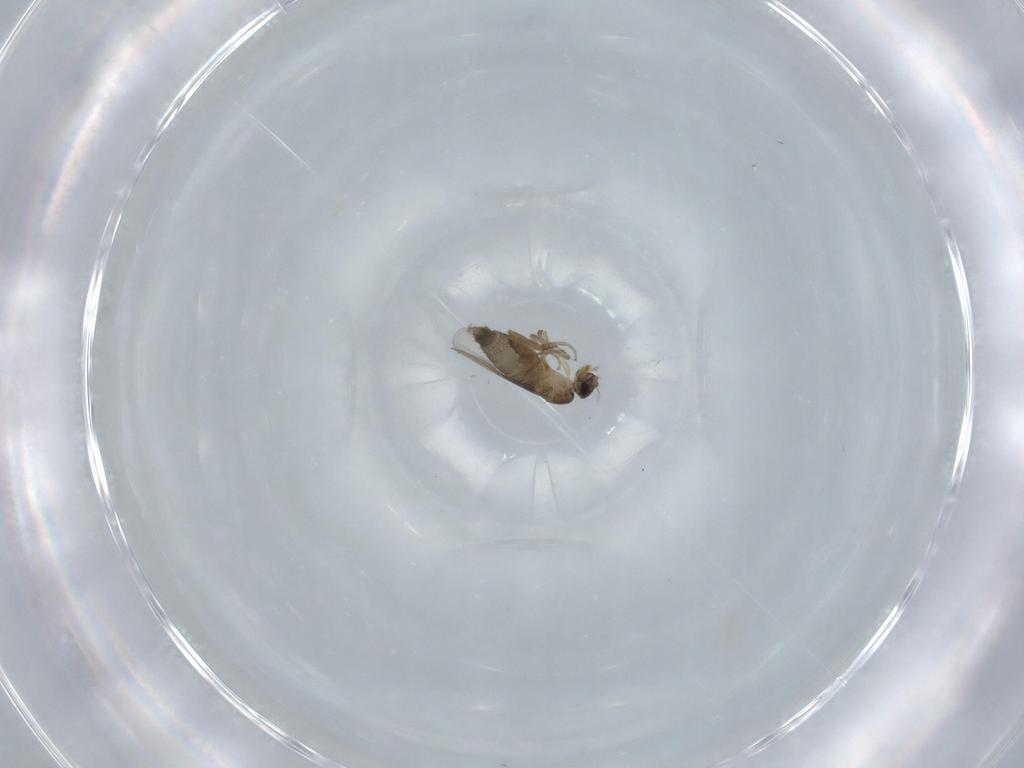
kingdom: Animalia
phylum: Arthropoda
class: Insecta
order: Diptera
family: Phoridae
